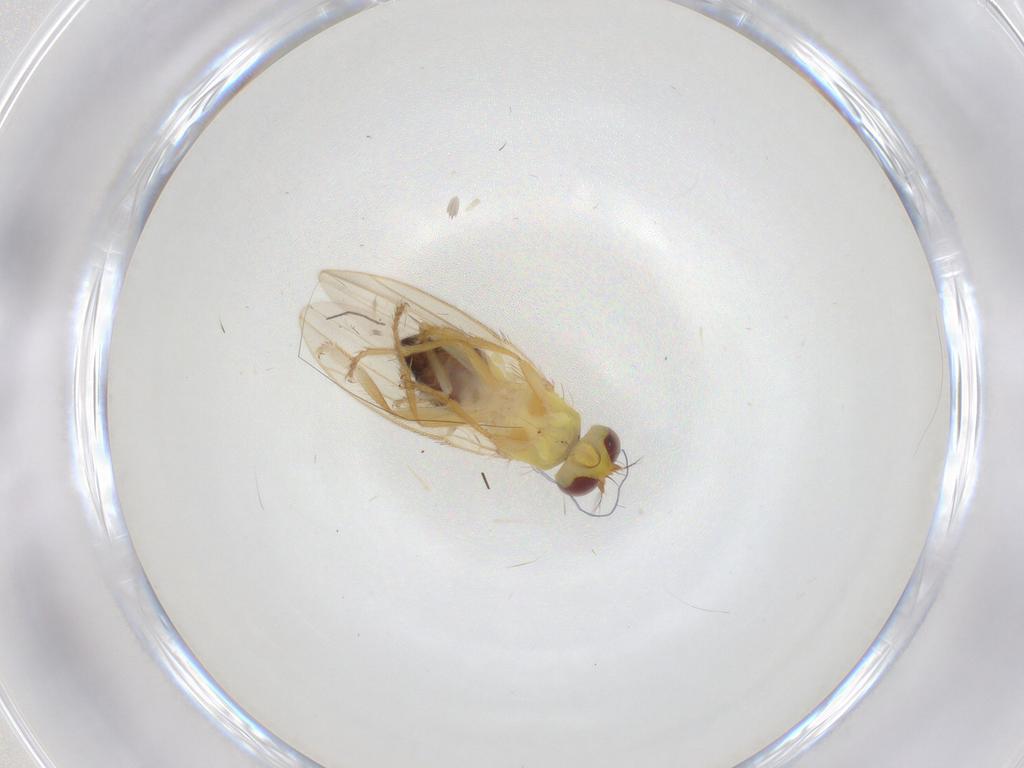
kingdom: Animalia
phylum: Arthropoda
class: Insecta
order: Diptera
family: Periscelididae
